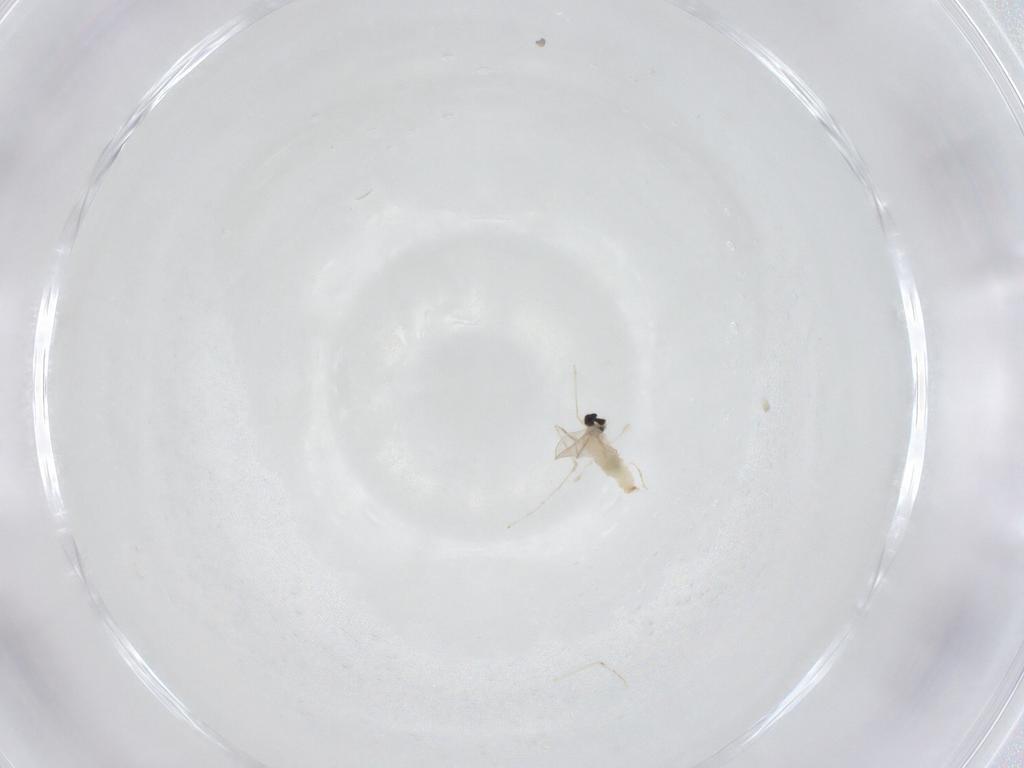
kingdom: Animalia
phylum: Arthropoda
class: Insecta
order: Diptera
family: Cecidomyiidae
